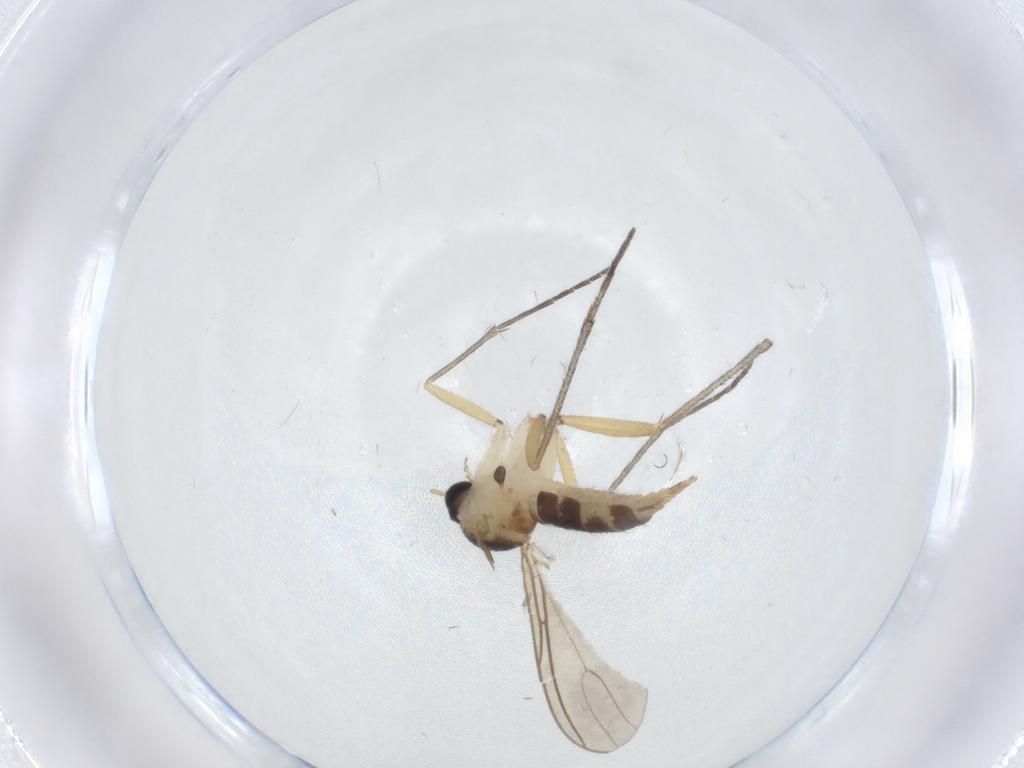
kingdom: Animalia
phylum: Arthropoda
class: Insecta
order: Diptera
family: Sciaridae
